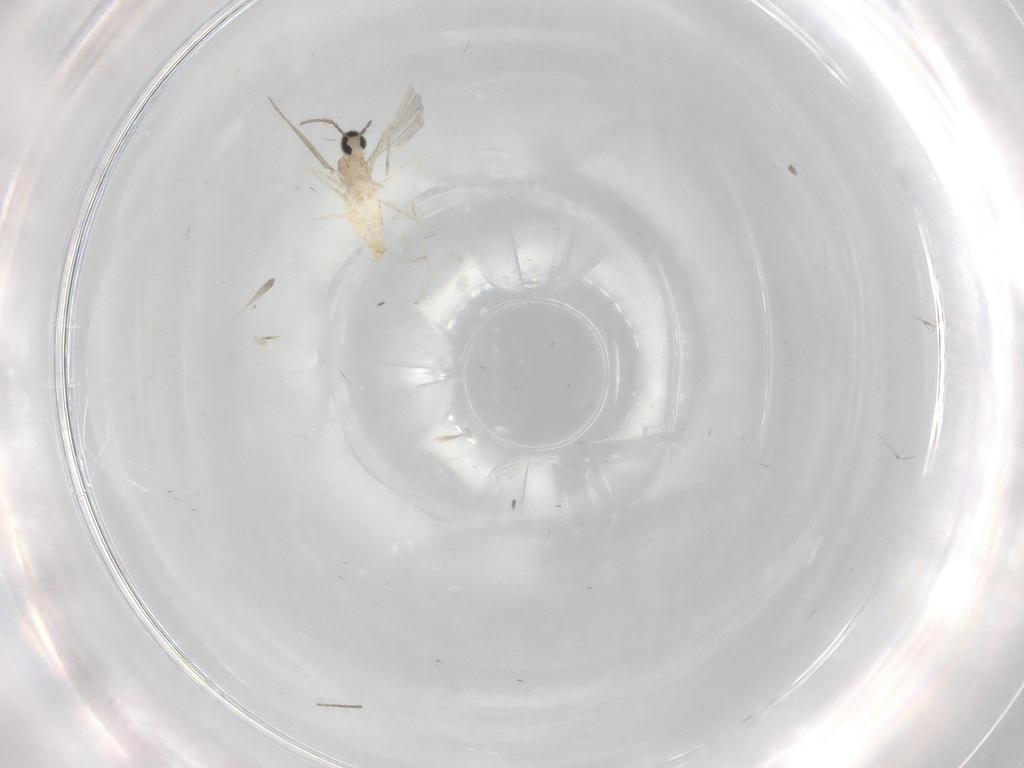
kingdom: Animalia
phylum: Arthropoda
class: Insecta
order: Diptera
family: Cecidomyiidae
